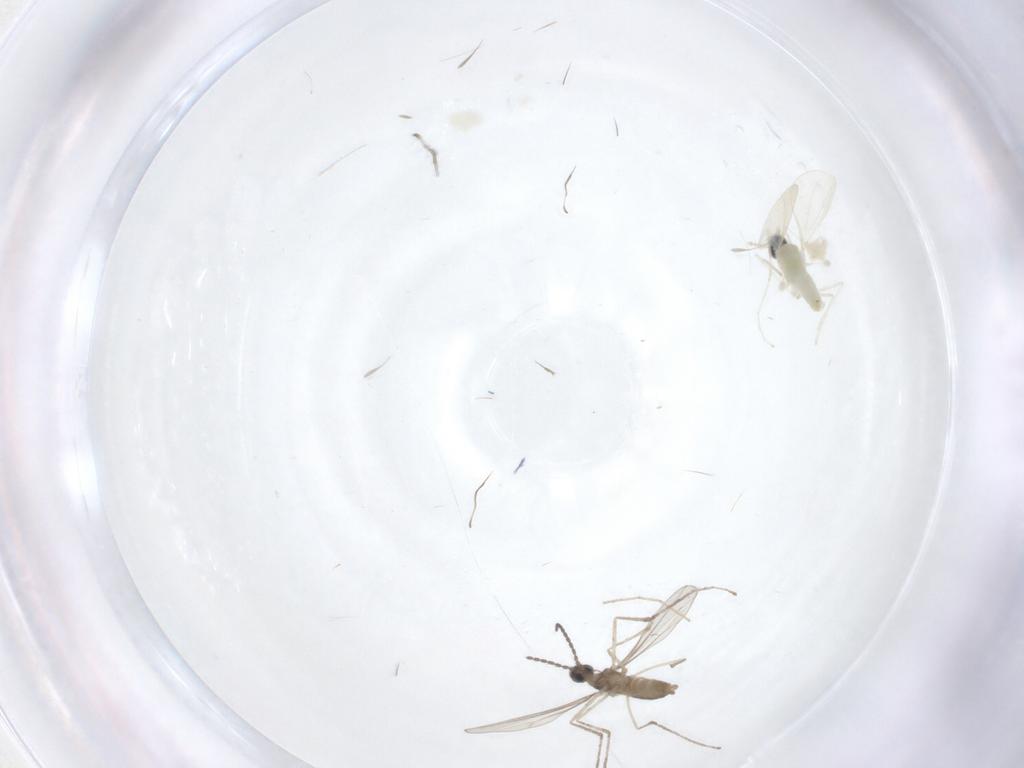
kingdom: Animalia
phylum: Arthropoda
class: Insecta
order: Diptera
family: Cecidomyiidae
